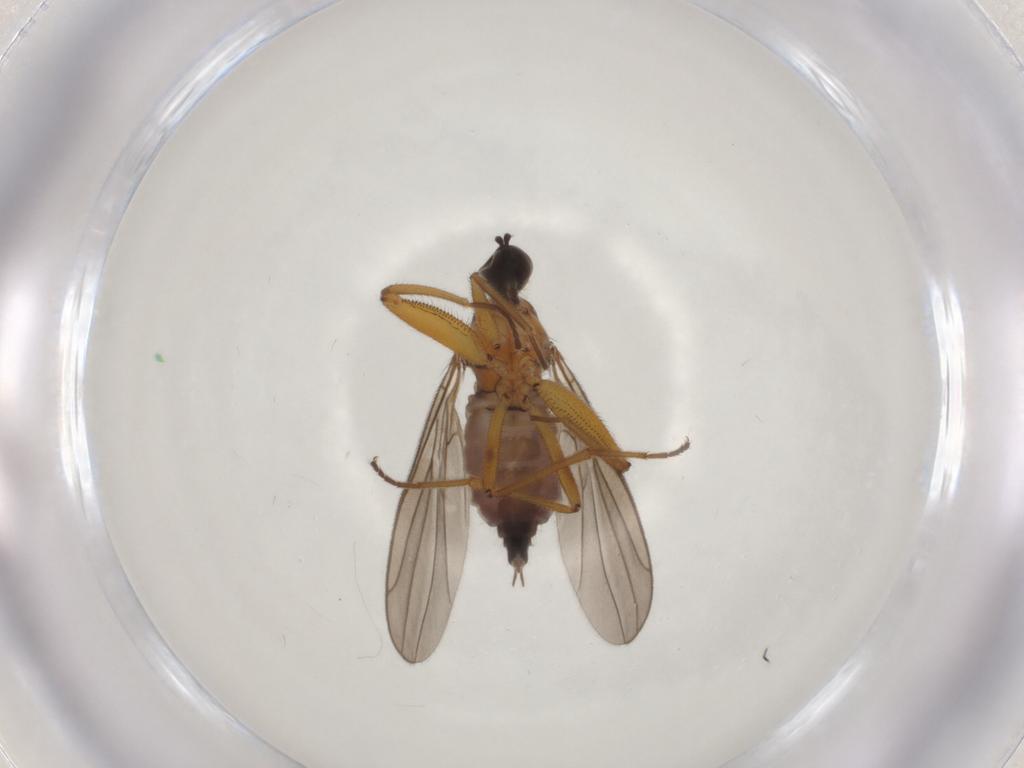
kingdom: Animalia
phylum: Arthropoda
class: Insecta
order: Diptera
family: Hybotidae
